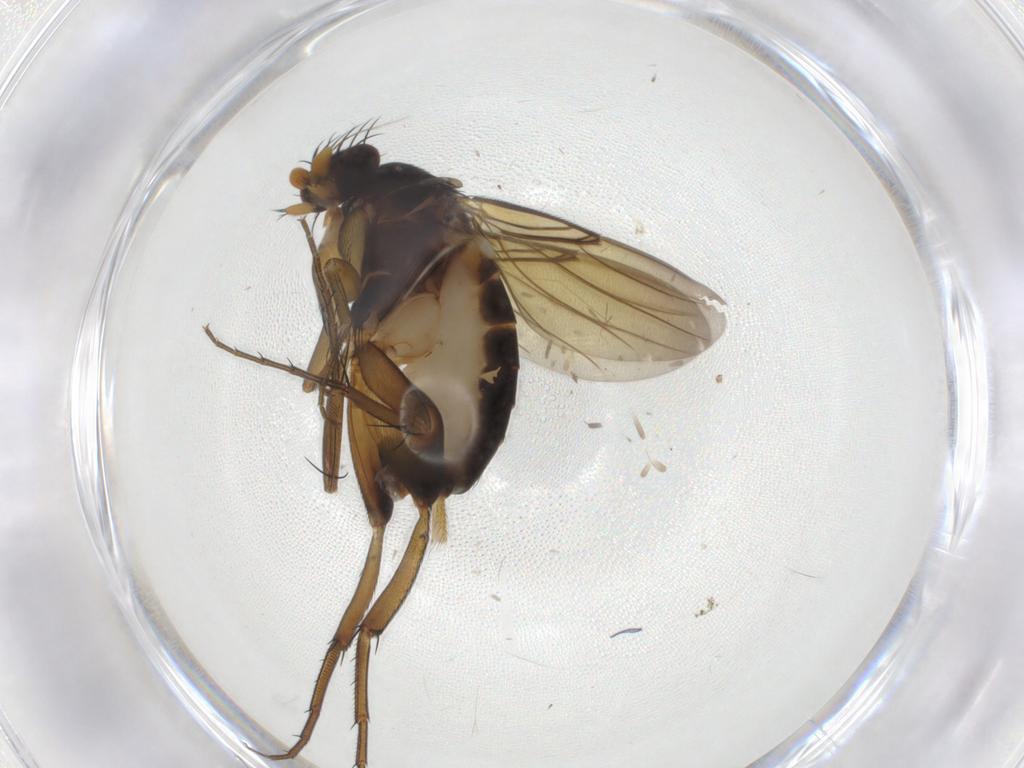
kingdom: Animalia
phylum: Arthropoda
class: Insecta
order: Diptera
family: Phoridae
